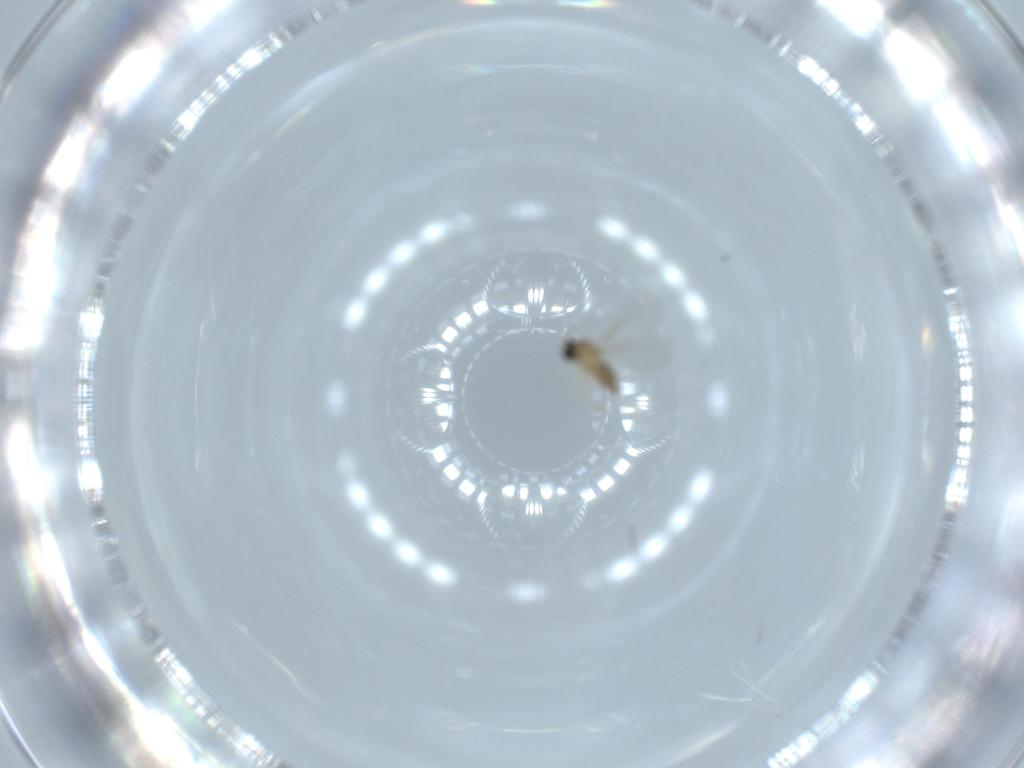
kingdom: Animalia
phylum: Arthropoda
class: Insecta
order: Diptera
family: Cecidomyiidae
